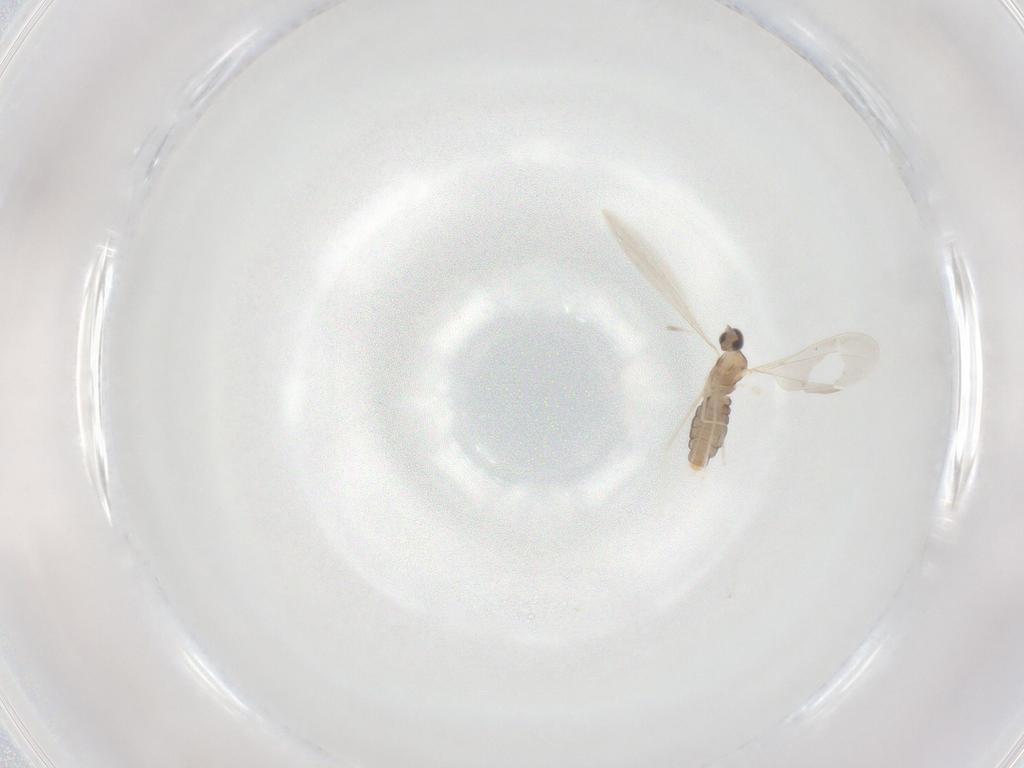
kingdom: Animalia
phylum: Arthropoda
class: Insecta
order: Diptera
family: Cecidomyiidae
